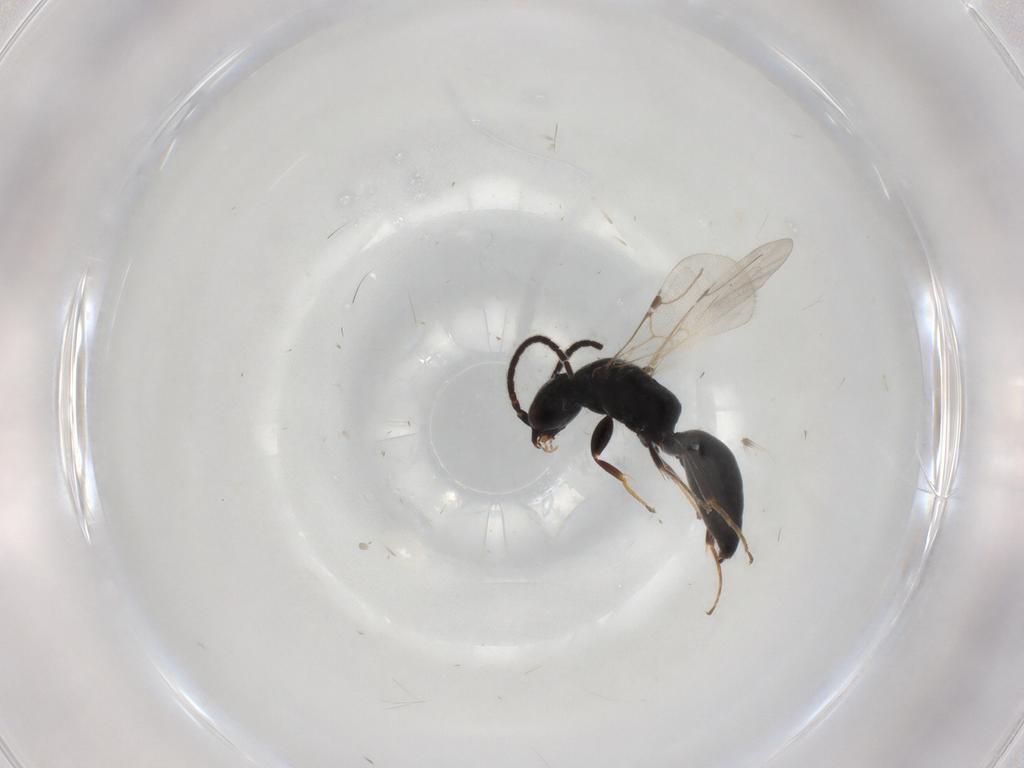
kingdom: Animalia
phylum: Arthropoda
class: Insecta
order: Hymenoptera
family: Bethylidae
